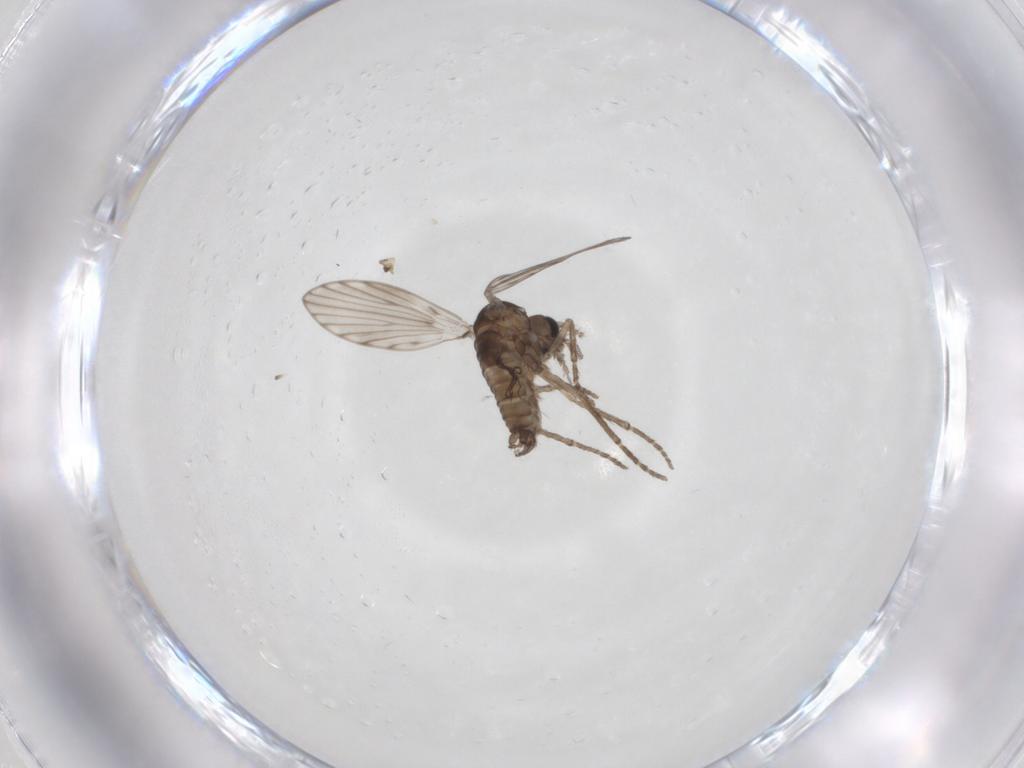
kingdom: Animalia
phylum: Arthropoda
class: Insecta
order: Diptera
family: Psychodidae
